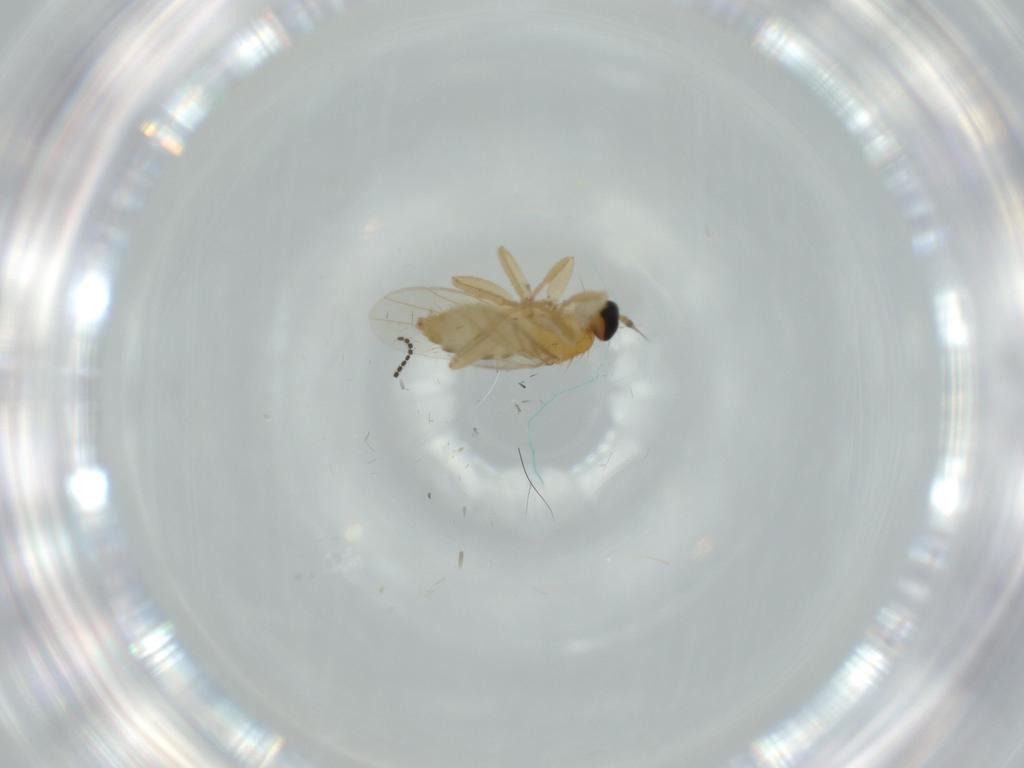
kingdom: Animalia
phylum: Arthropoda
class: Insecta
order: Diptera
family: Hybotidae
